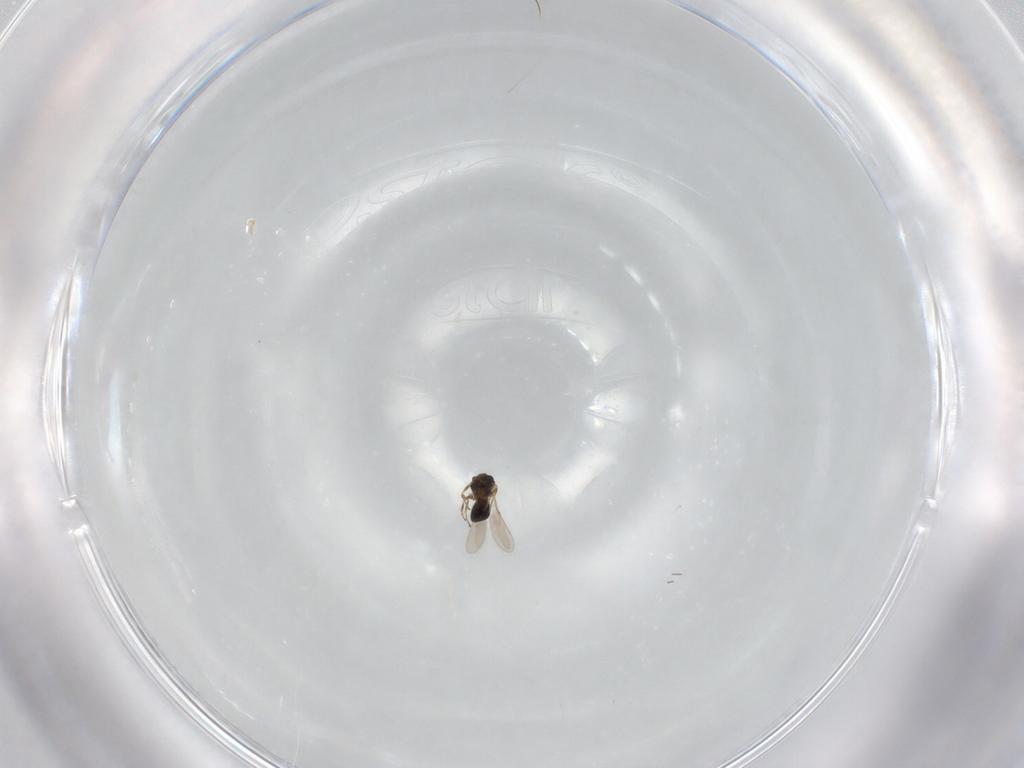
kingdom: Animalia
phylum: Arthropoda
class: Insecta
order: Hymenoptera
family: Scelionidae
